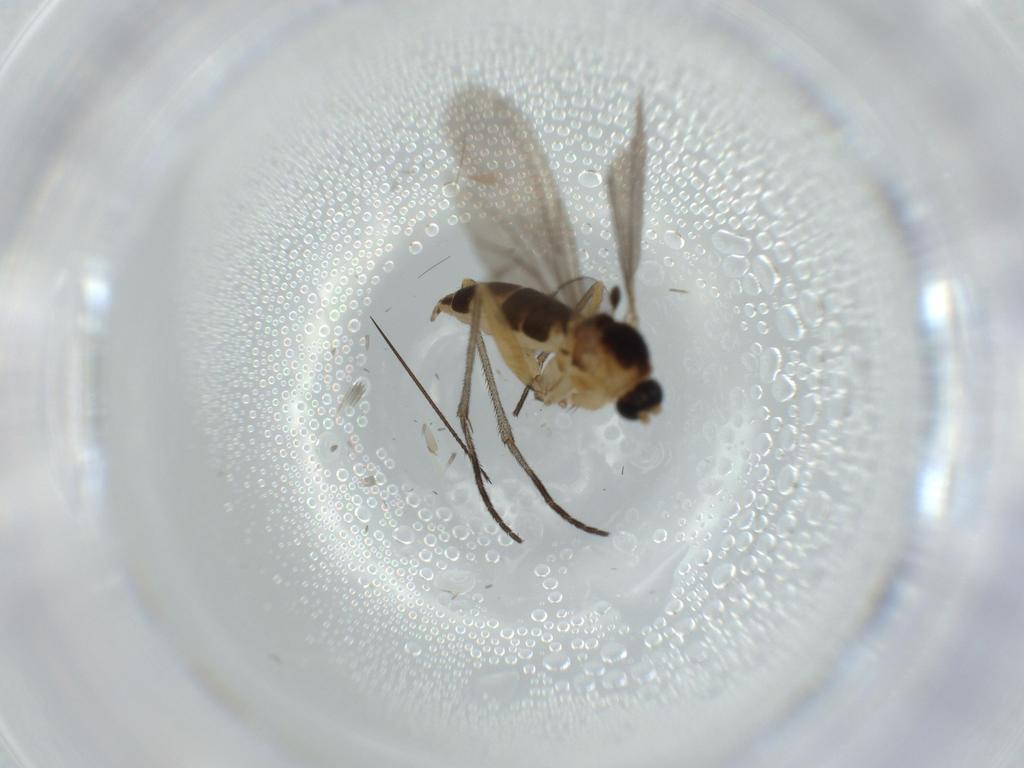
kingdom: Animalia
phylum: Arthropoda
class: Insecta
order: Diptera
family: Sciaridae
